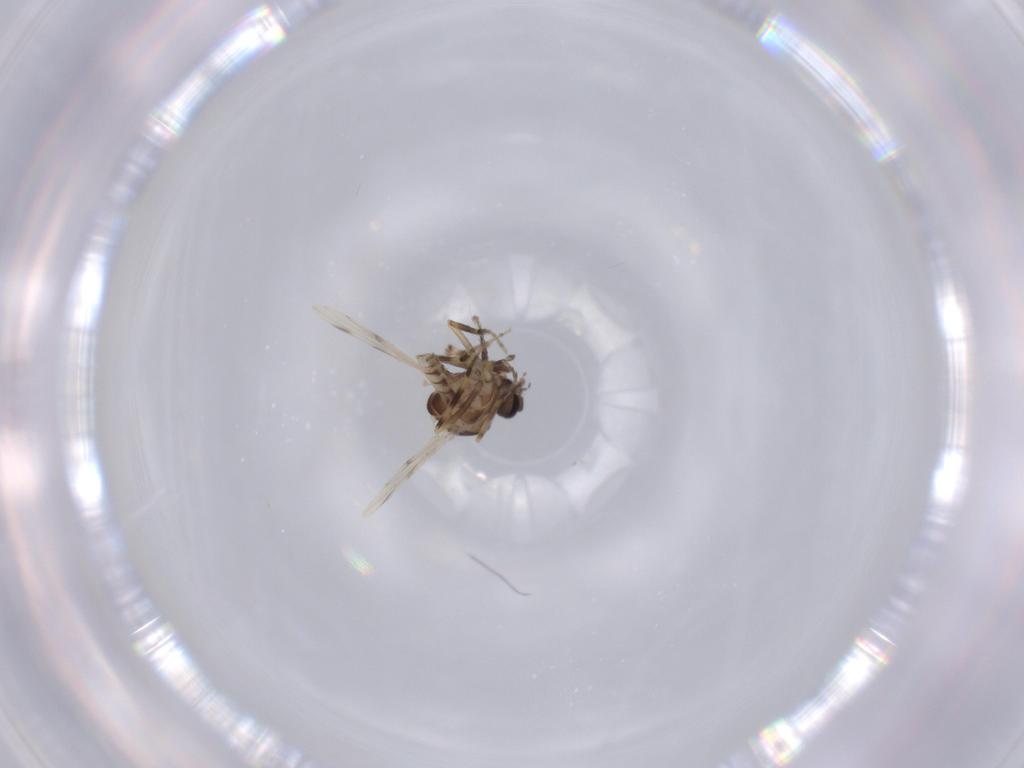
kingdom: Animalia
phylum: Arthropoda
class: Insecta
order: Diptera
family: Ceratopogonidae
